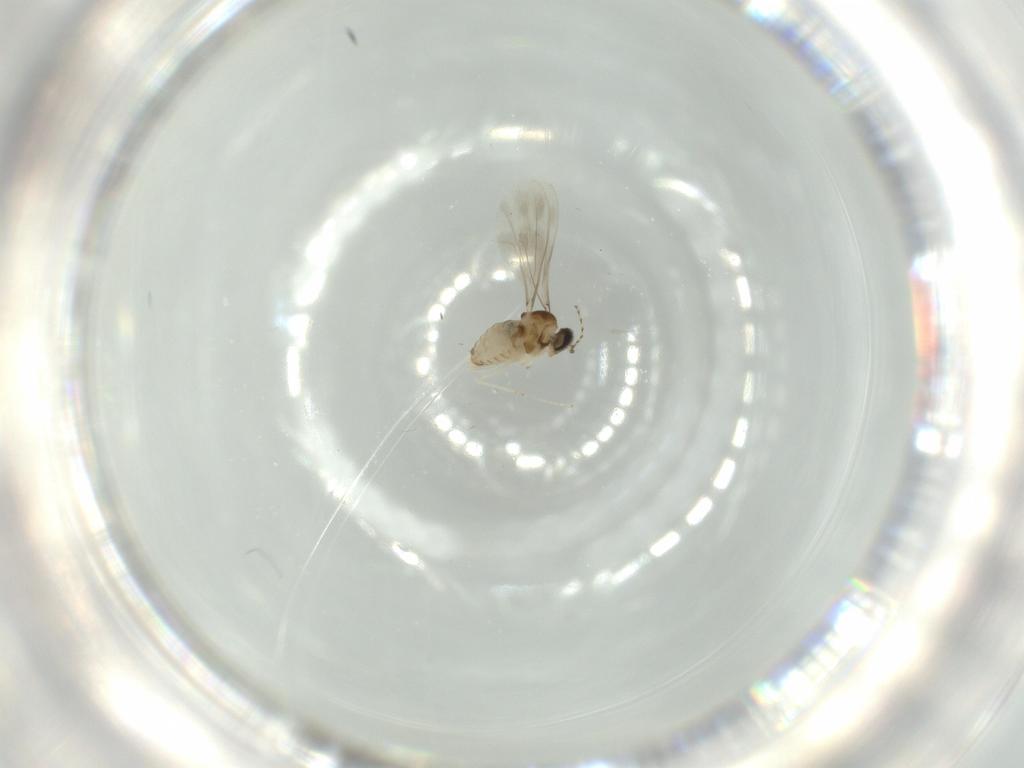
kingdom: Animalia
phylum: Arthropoda
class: Insecta
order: Diptera
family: Cecidomyiidae
